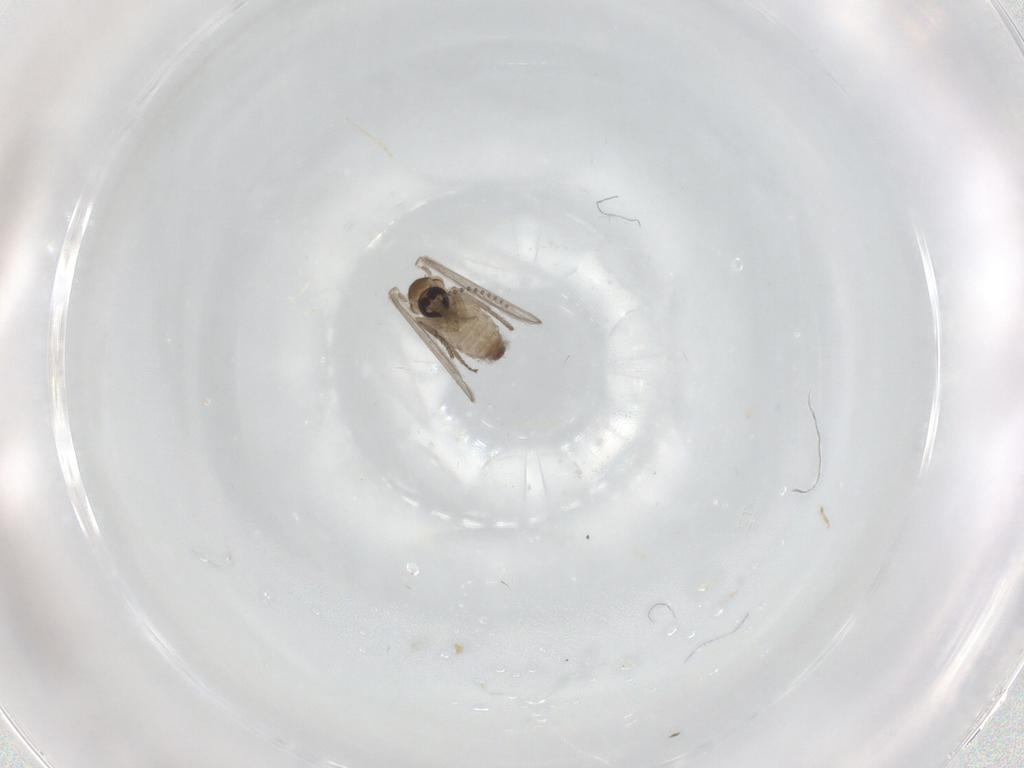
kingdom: Animalia
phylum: Arthropoda
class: Insecta
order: Diptera
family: Psychodidae
